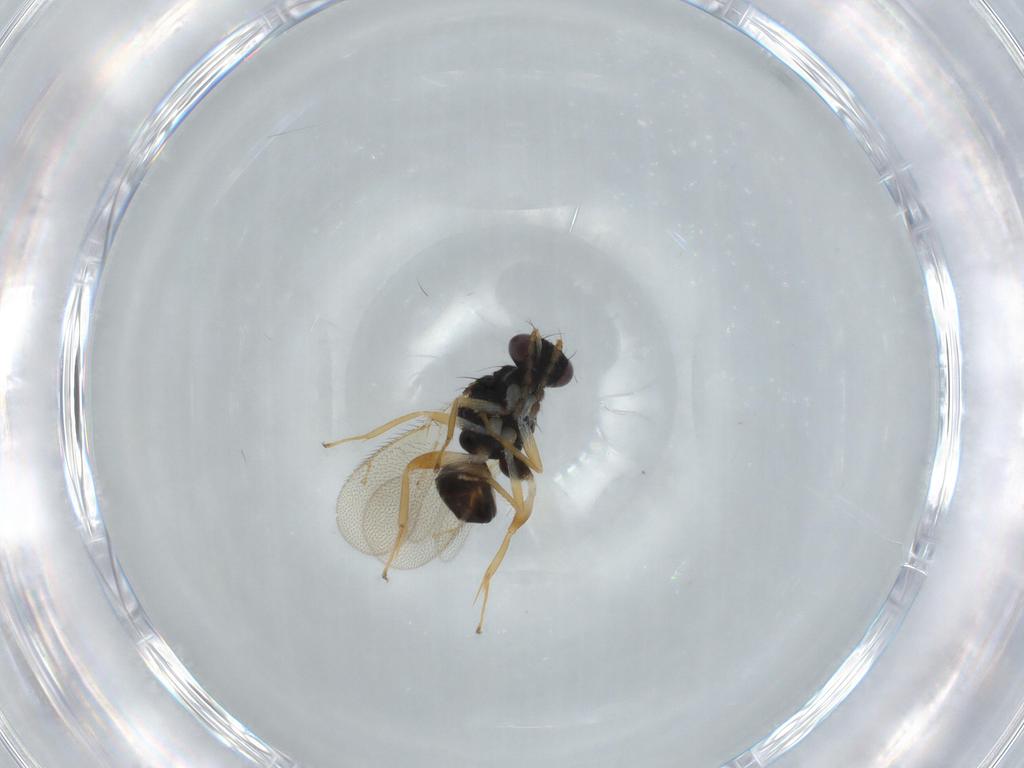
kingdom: Animalia
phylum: Arthropoda
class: Insecta
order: Hymenoptera
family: Eulophidae
